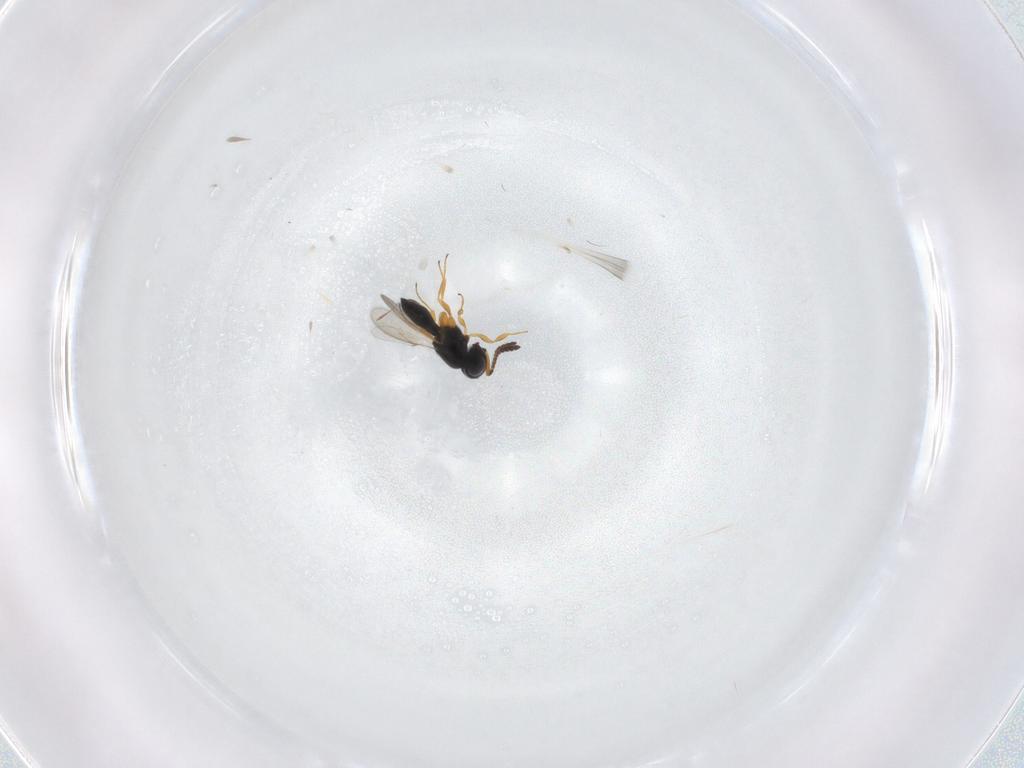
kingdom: Animalia
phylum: Arthropoda
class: Insecta
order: Hymenoptera
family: Scelionidae
